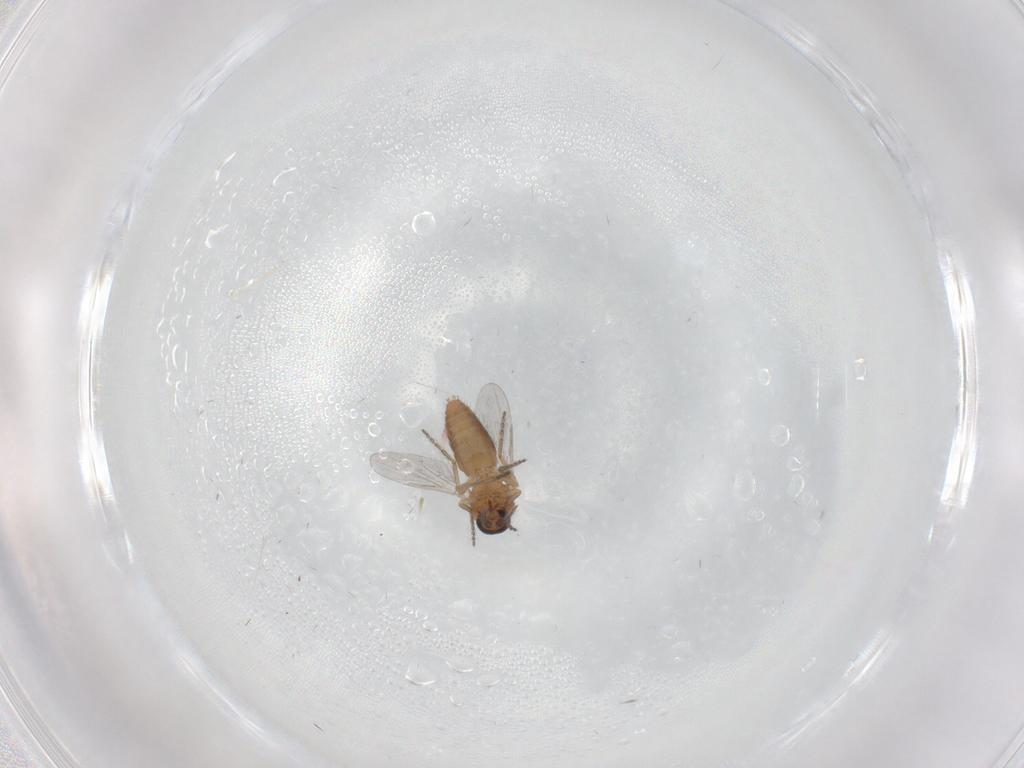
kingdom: Animalia
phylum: Arthropoda
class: Insecta
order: Diptera
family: Ceratopogonidae
